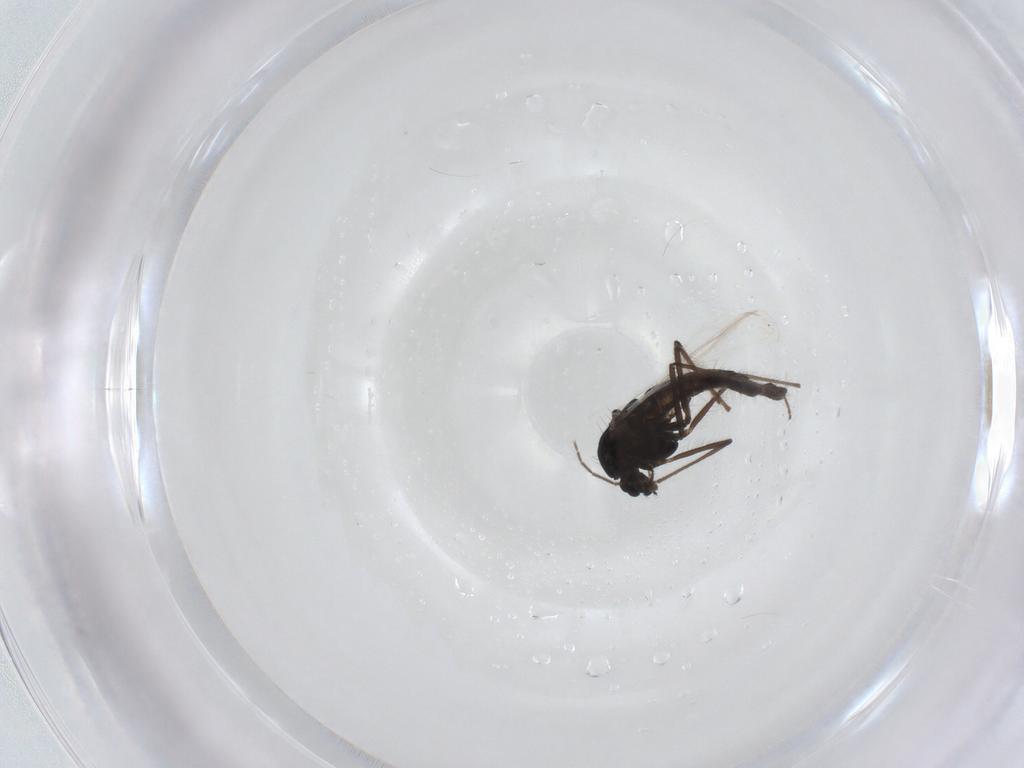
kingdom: Animalia
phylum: Arthropoda
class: Insecta
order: Diptera
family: Chironomidae
